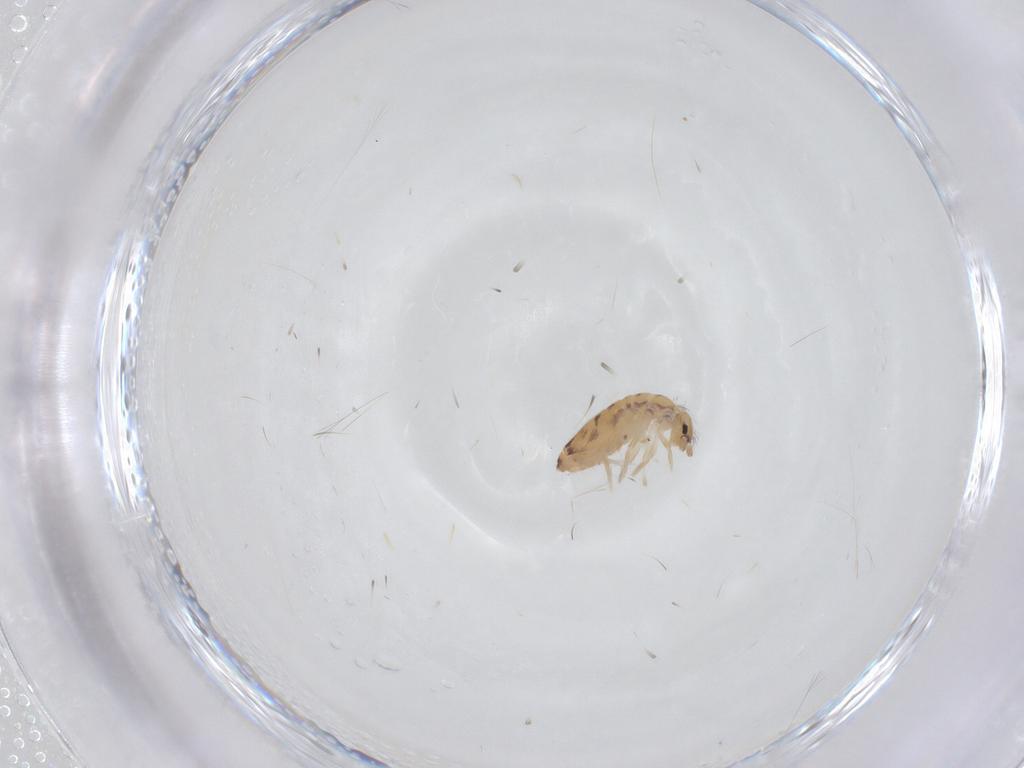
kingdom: Animalia
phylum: Arthropoda
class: Collembola
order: Entomobryomorpha
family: Entomobryidae
